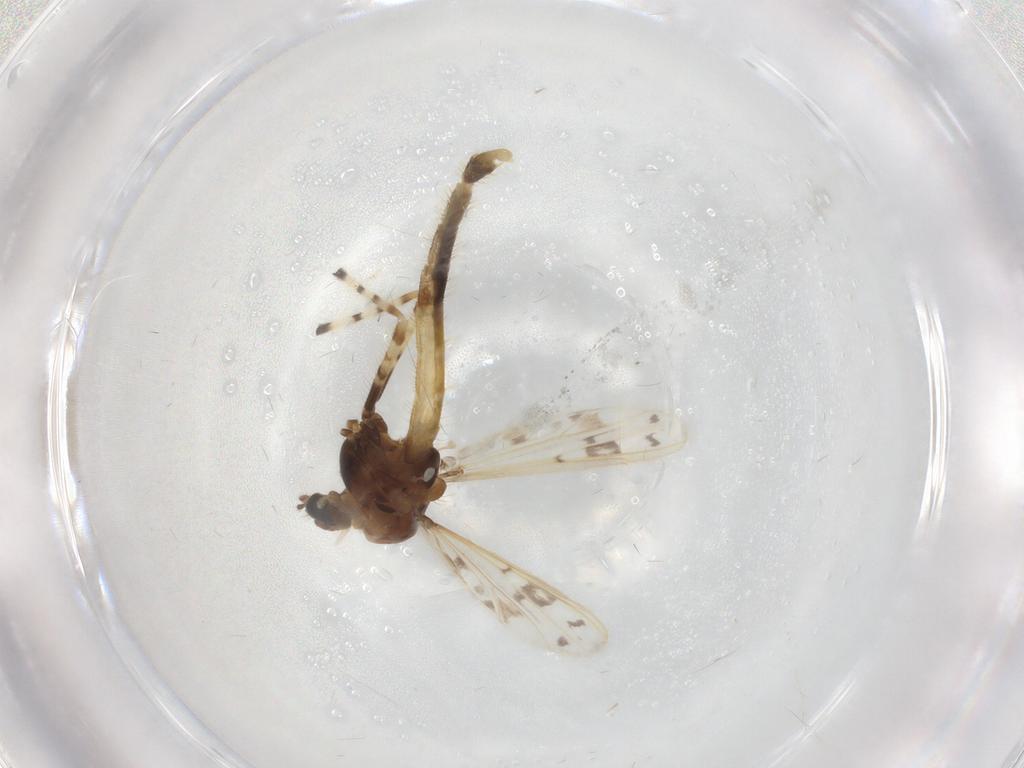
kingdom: Animalia
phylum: Arthropoda
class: Insecta
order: Diptera
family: Chironomidae
